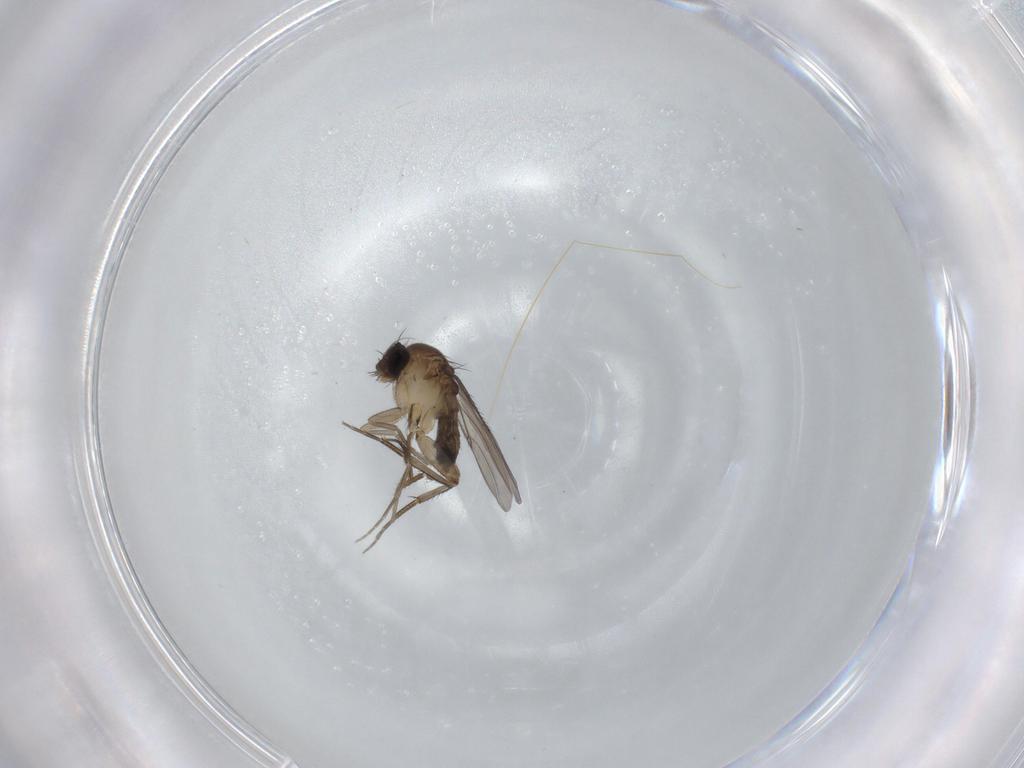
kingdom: Animalia
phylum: Arthropoda
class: Insecta
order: Diptera
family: Phoridae
